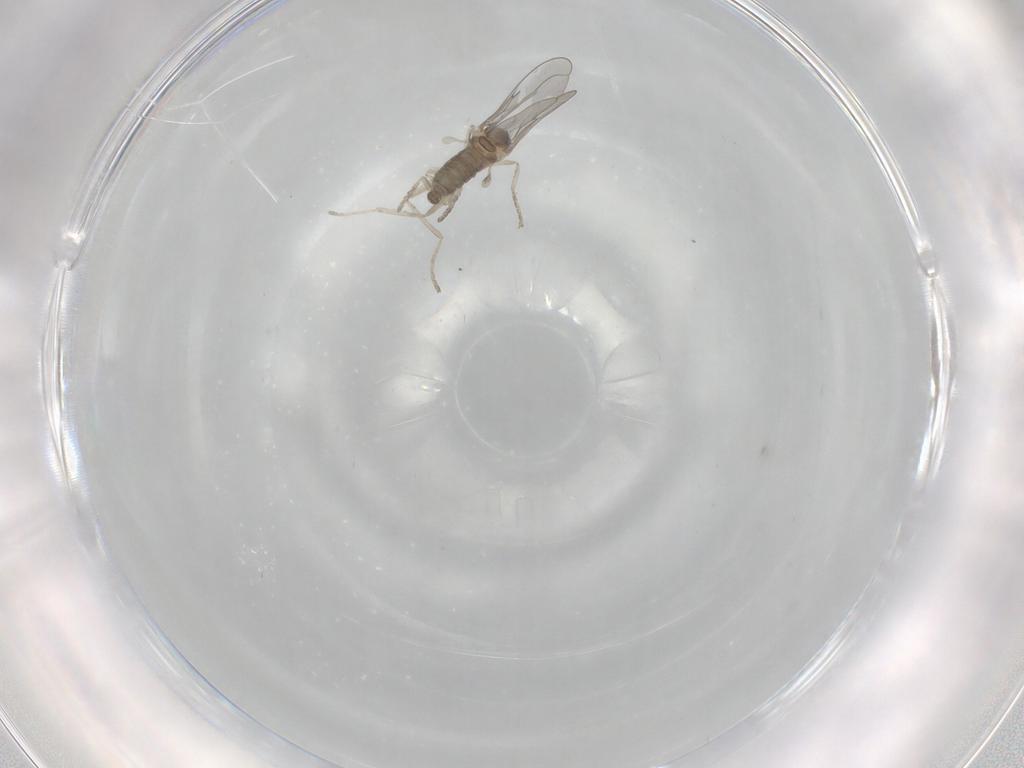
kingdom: Animalia
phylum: Arthropoda
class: Insecta
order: Diptera
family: Cecidomyiidae
